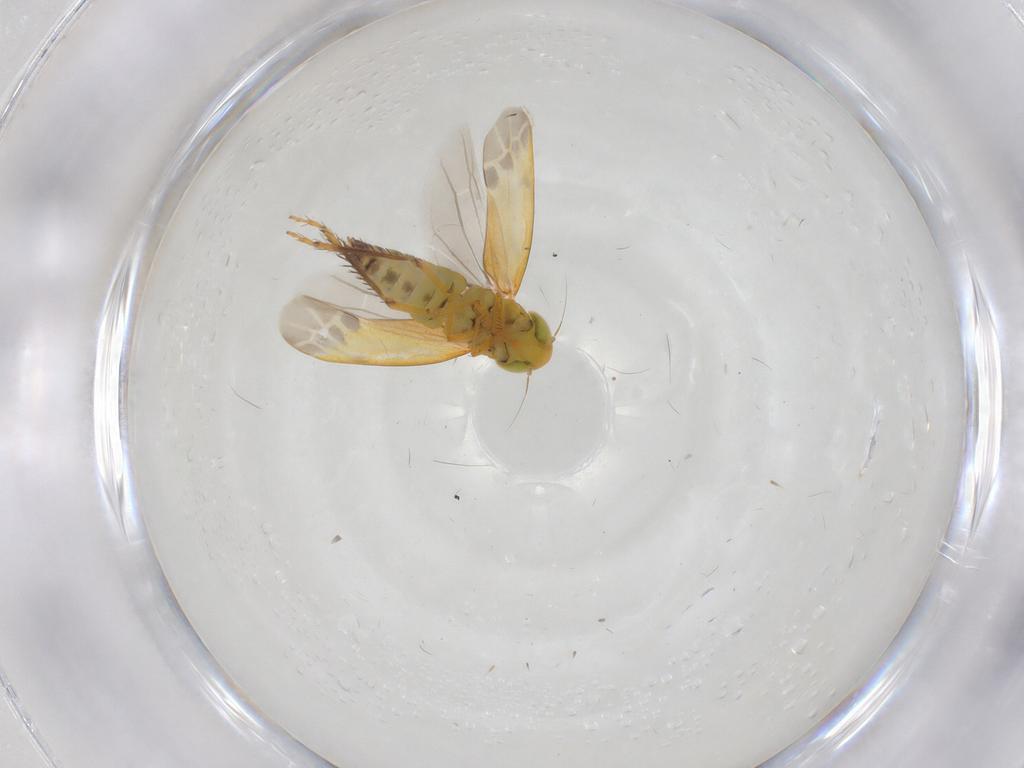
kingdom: Animalia
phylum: Arthropoda
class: Insecta
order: Hemiptera
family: Cicadellidae
